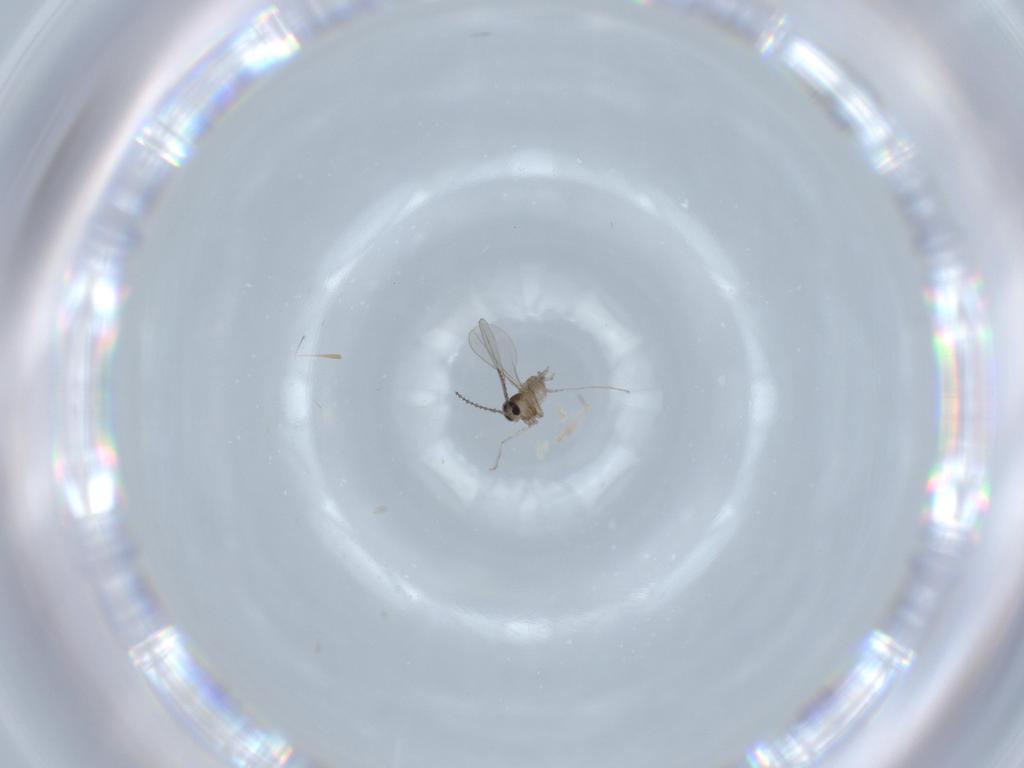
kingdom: Animalia
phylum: Arthropoda
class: Insecta
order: Diptera
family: Cecidomyiidae
